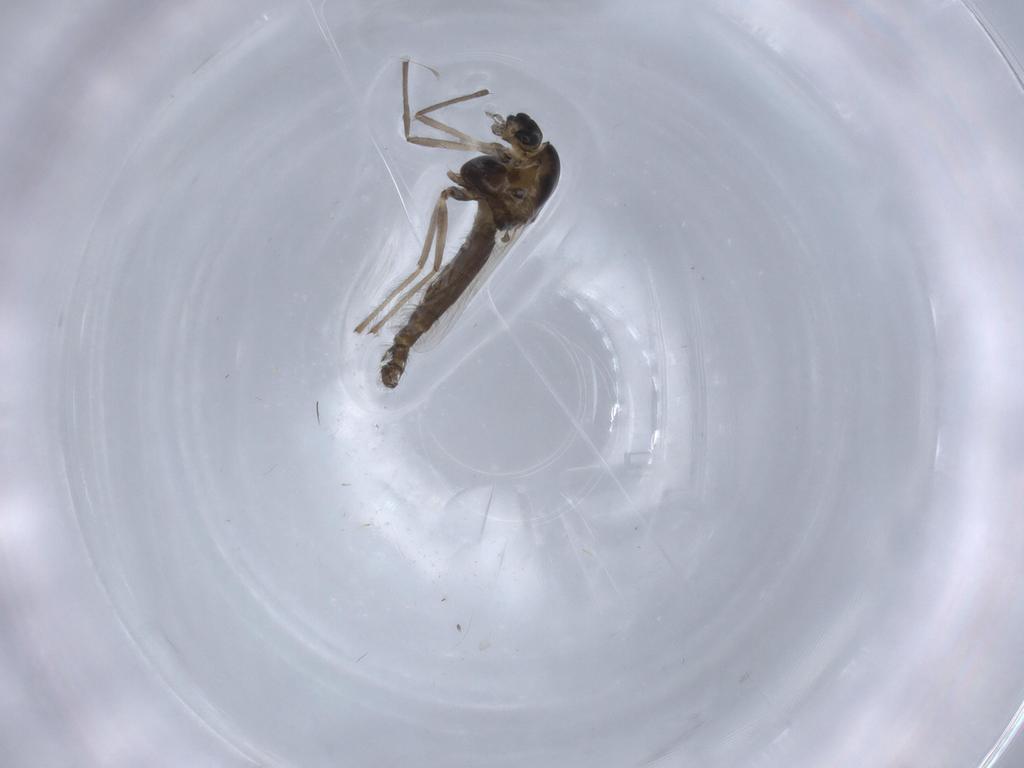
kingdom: Animalia
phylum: Arthropoda
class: Insecta
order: Diptera
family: Chironomidae
